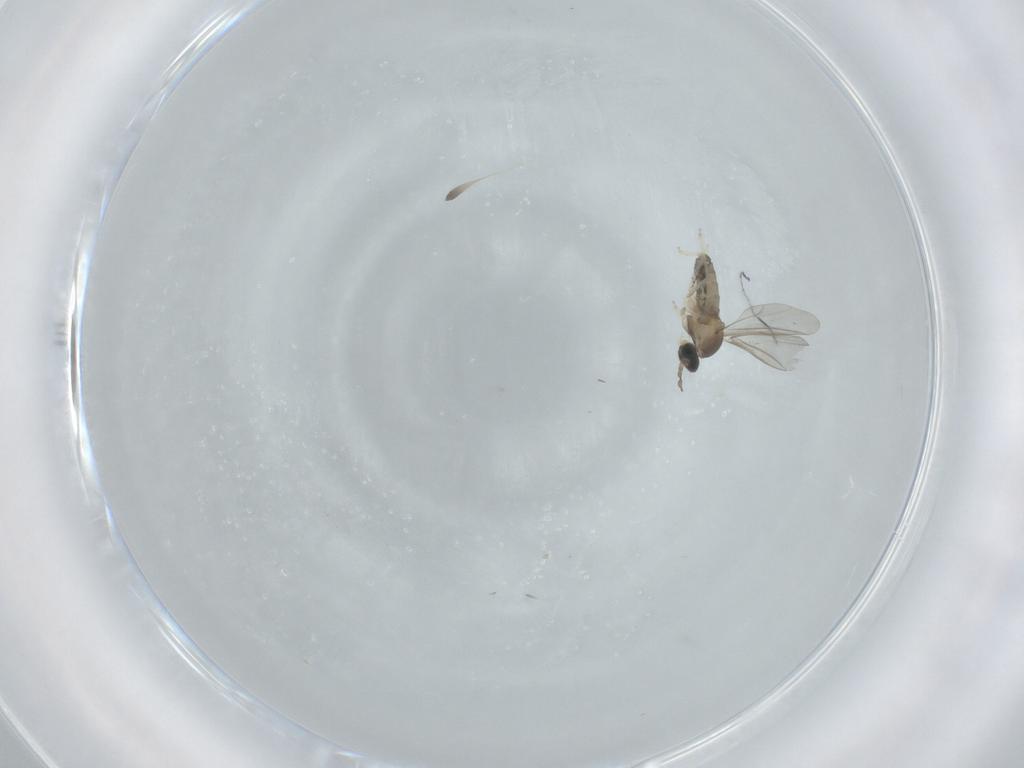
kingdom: Animalia
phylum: Arthropoda
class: Insecta
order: Diptera
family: Cecidomyiidae
